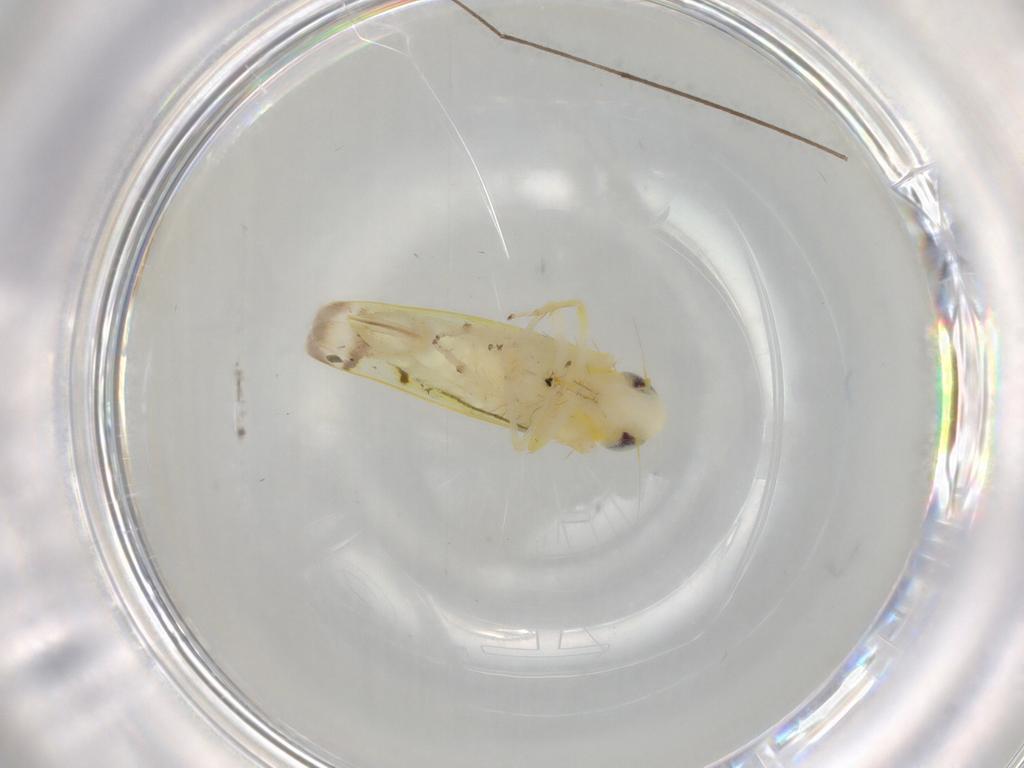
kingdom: Animalia
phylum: Arthropoda
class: Insecta
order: Hemiptera
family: Cicadellidae
